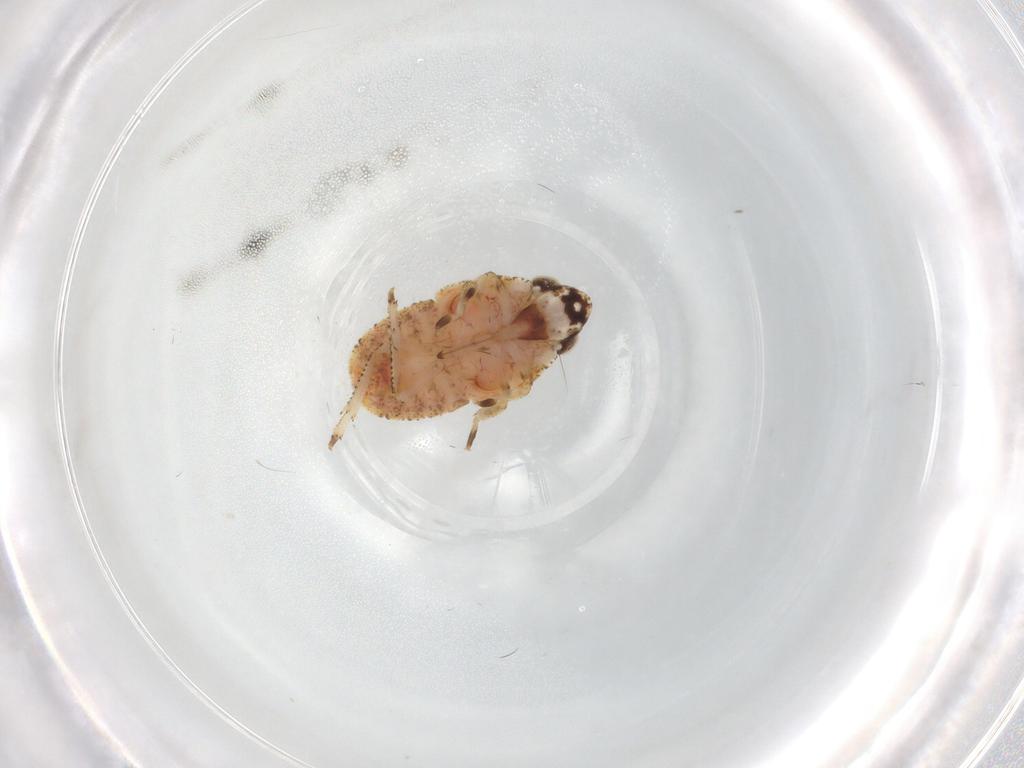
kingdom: Animalia
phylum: Arthropoda
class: Insecta
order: Hemiptera
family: Gengidae
